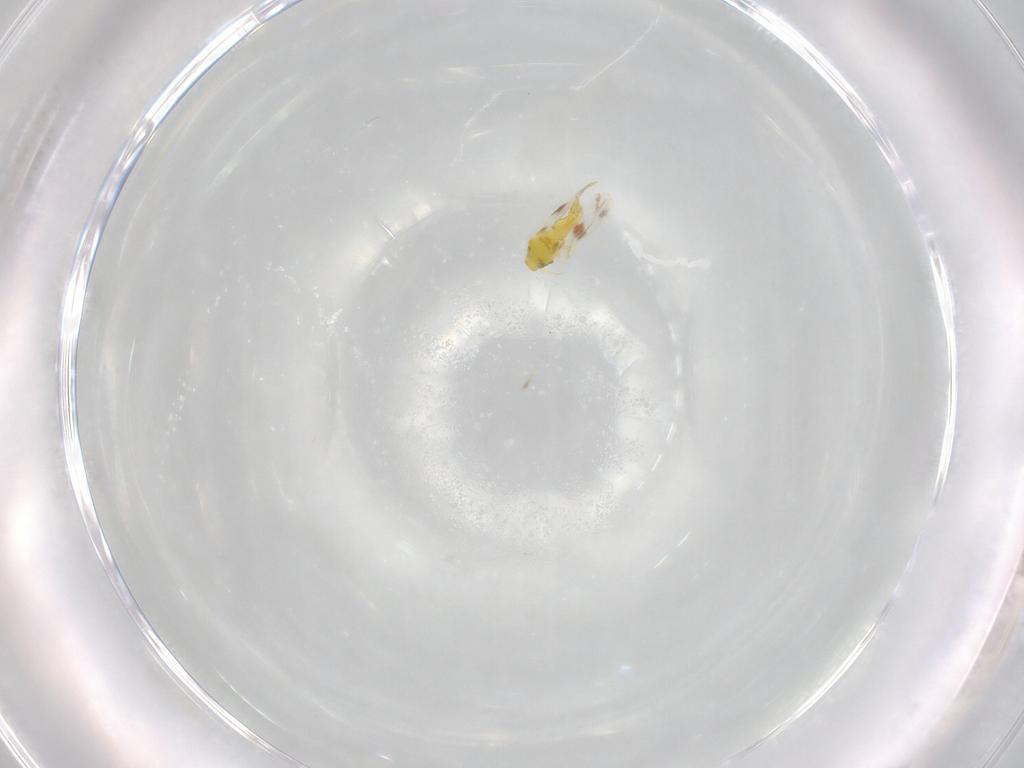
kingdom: Animalia
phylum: Arthropoda
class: Insecta
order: Hemiptera
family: Aleyrodidae
